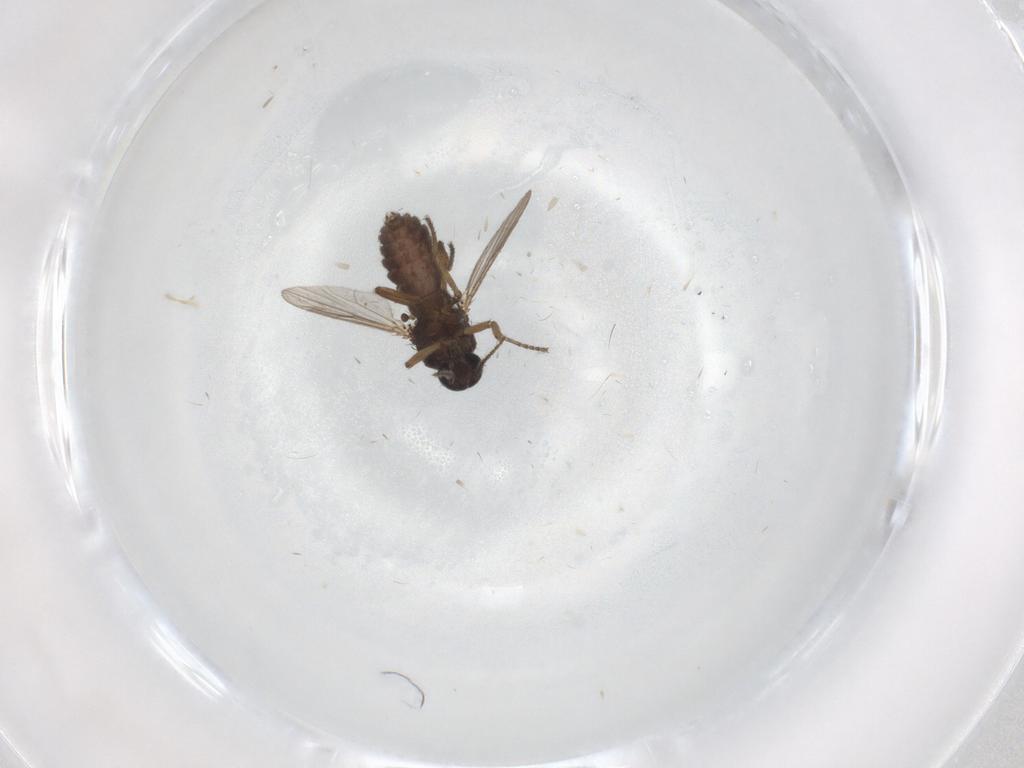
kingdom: Animalia
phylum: Arthropoda
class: Insecta
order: Diptera
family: Ceratopogonidae
